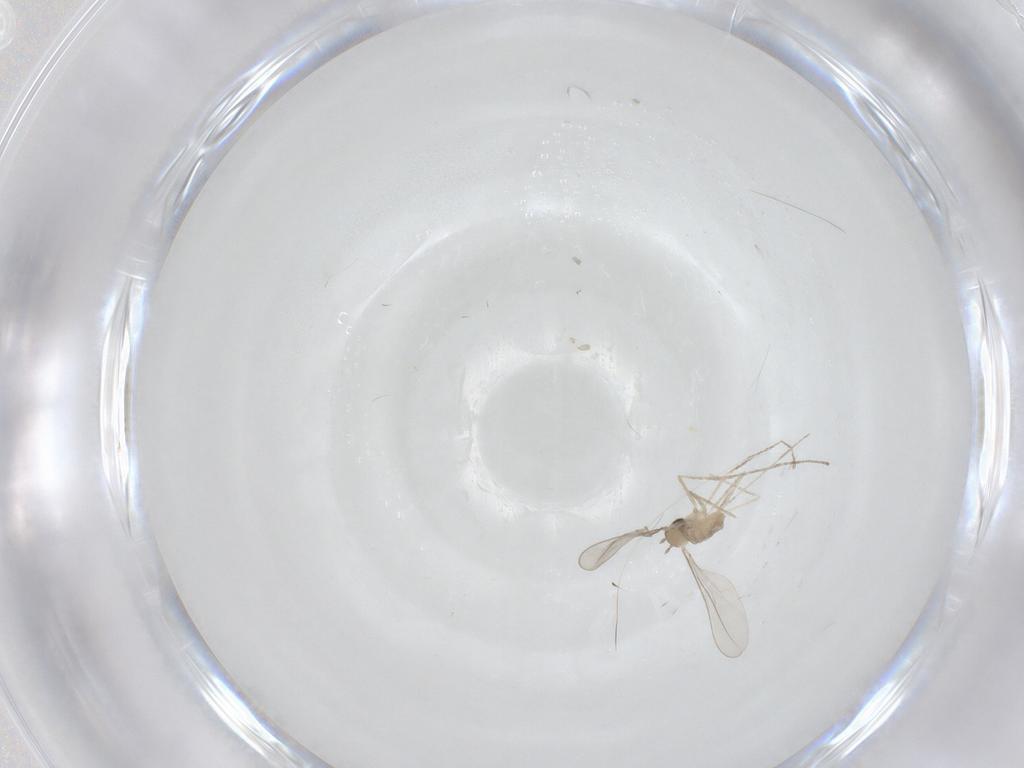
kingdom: Animalia
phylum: Arthropoda
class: Insecta
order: Diptera
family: Cecidomyiidae
